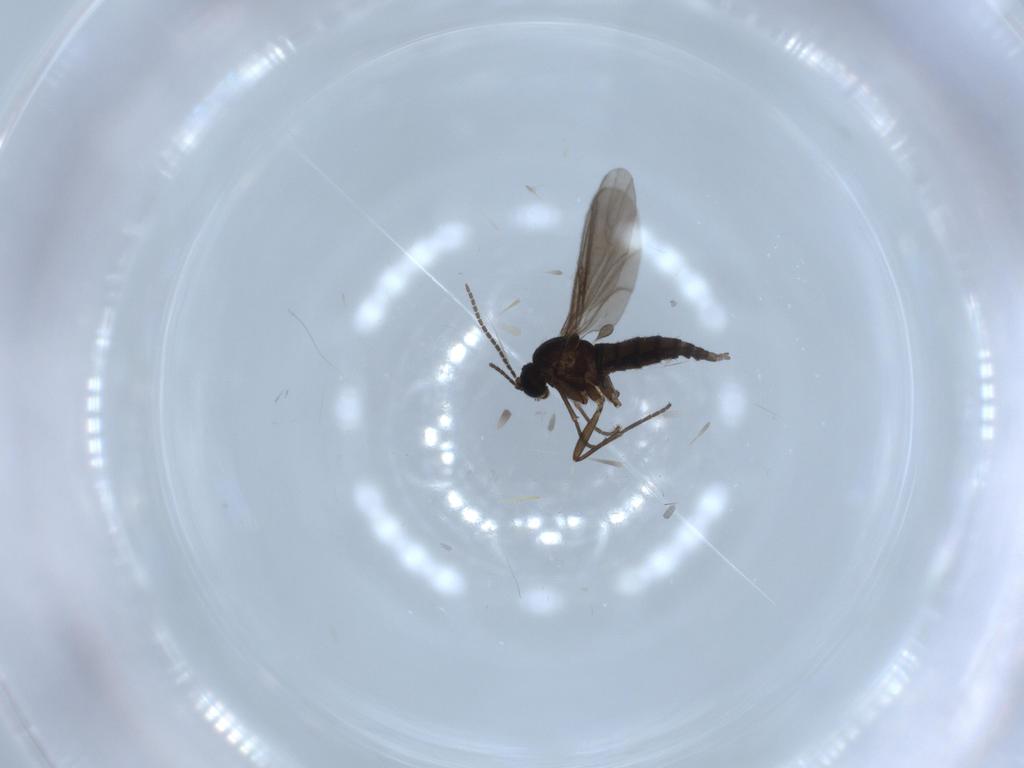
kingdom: Animalia
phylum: Arthropoda
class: Insecta
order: Diptera
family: Sciaridae
